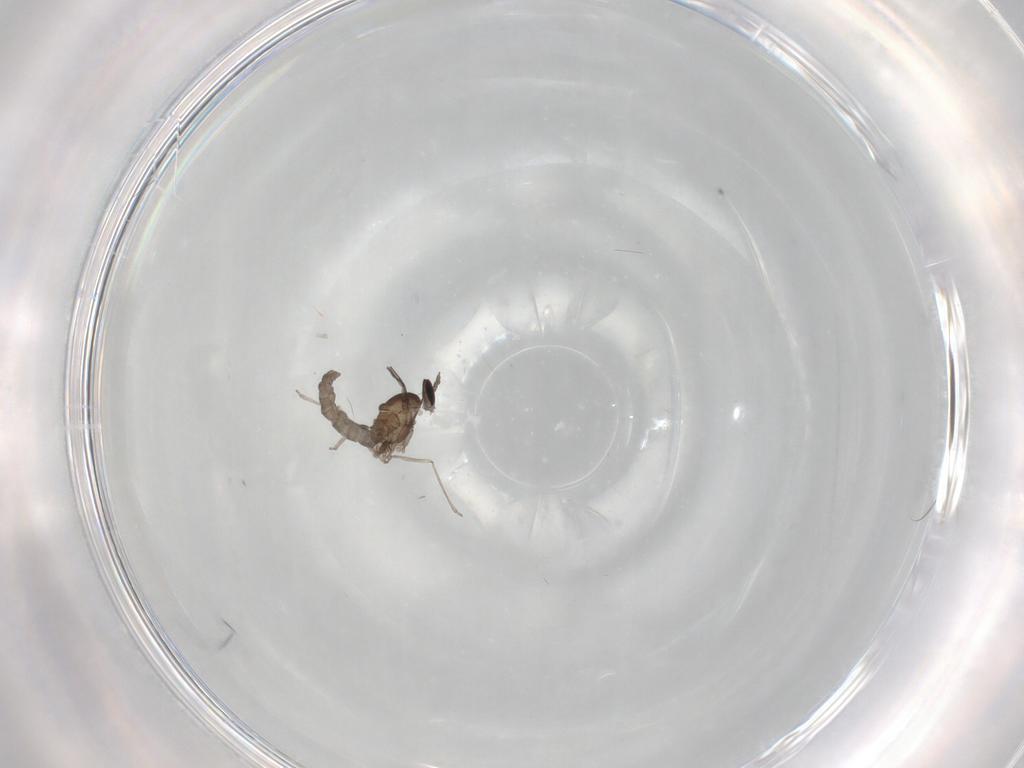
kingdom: Animalia
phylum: Arthropoda
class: Insecta
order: Diptera
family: Cecidomyiidae
